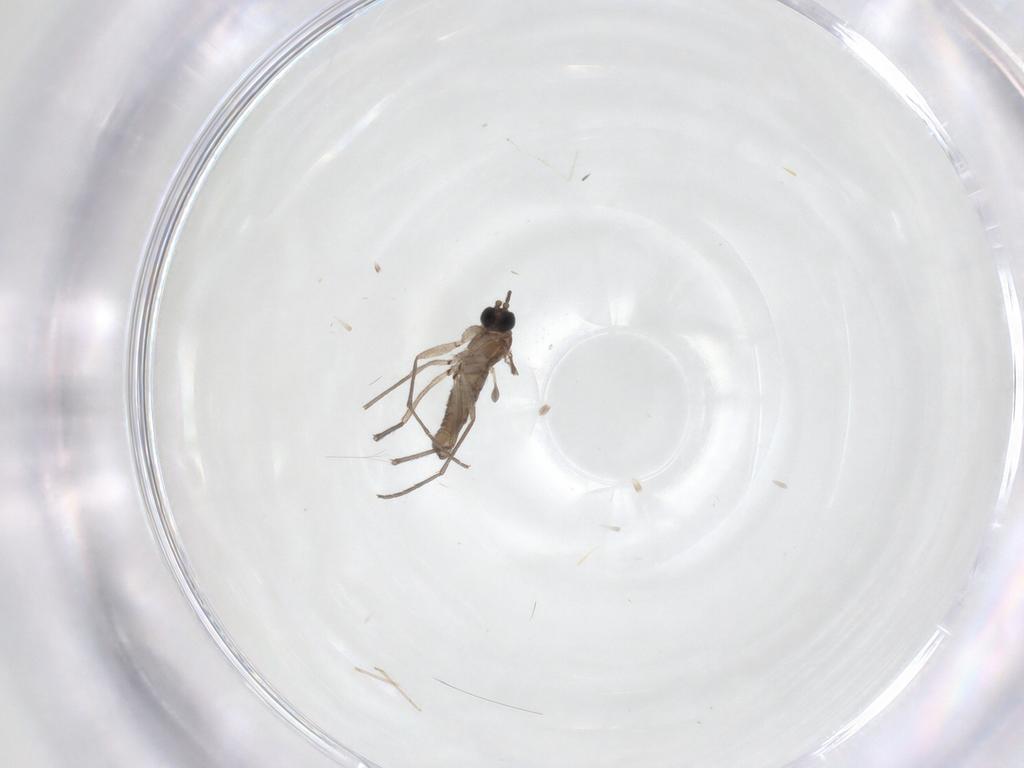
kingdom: Animalia
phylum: Arthropoda
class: Insecta
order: Diptera
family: Sciaridae
